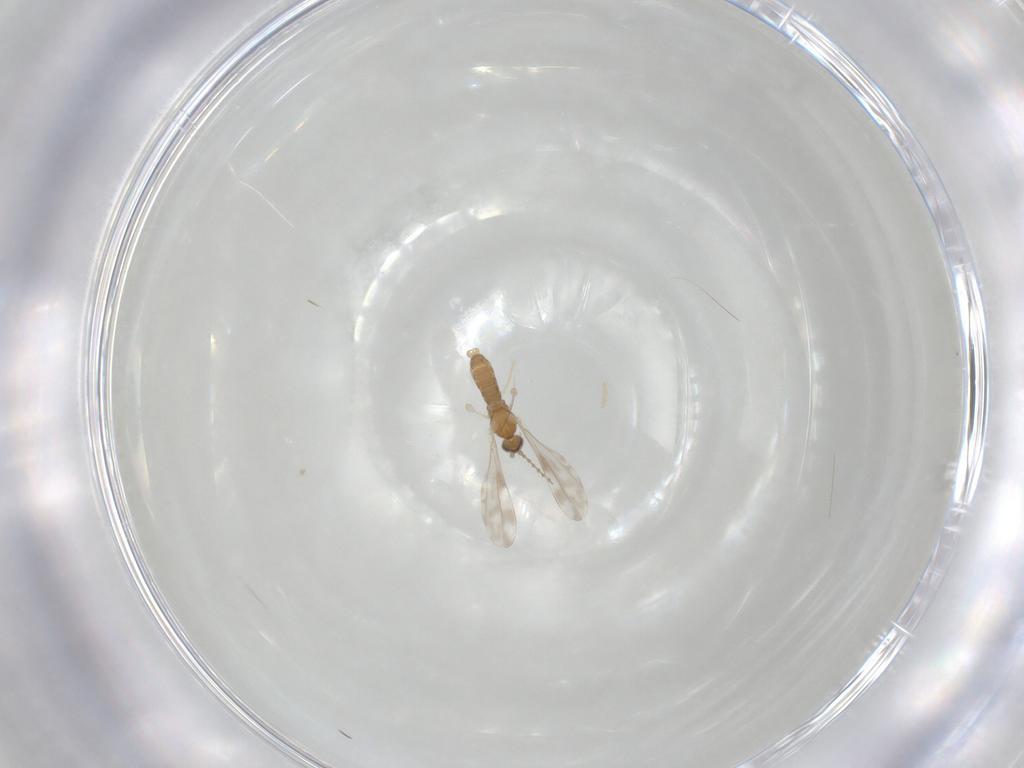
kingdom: Animalia
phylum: Arthropoda
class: Insecta
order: Diptera
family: Cecidomyiidae
